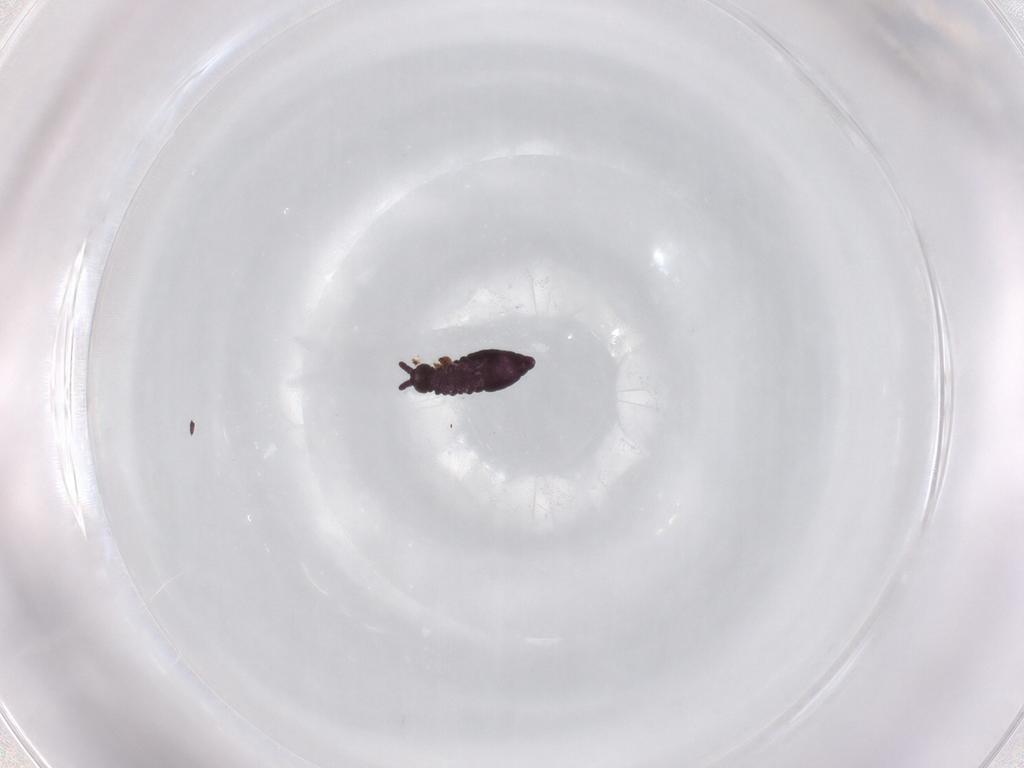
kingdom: Animalia
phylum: Arthropoda
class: Collembola
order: Poduromorpha
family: Hypogastruridae
